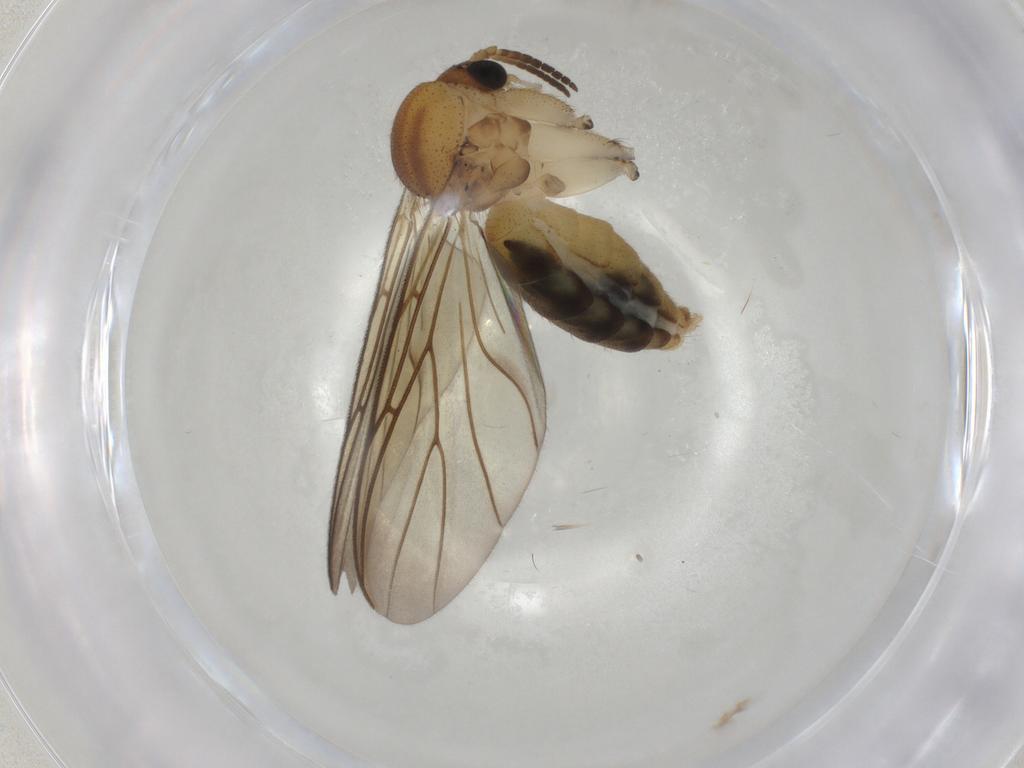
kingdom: Animalia
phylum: Arthropoda
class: Insecta
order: Diptera
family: Mycetophilidae
